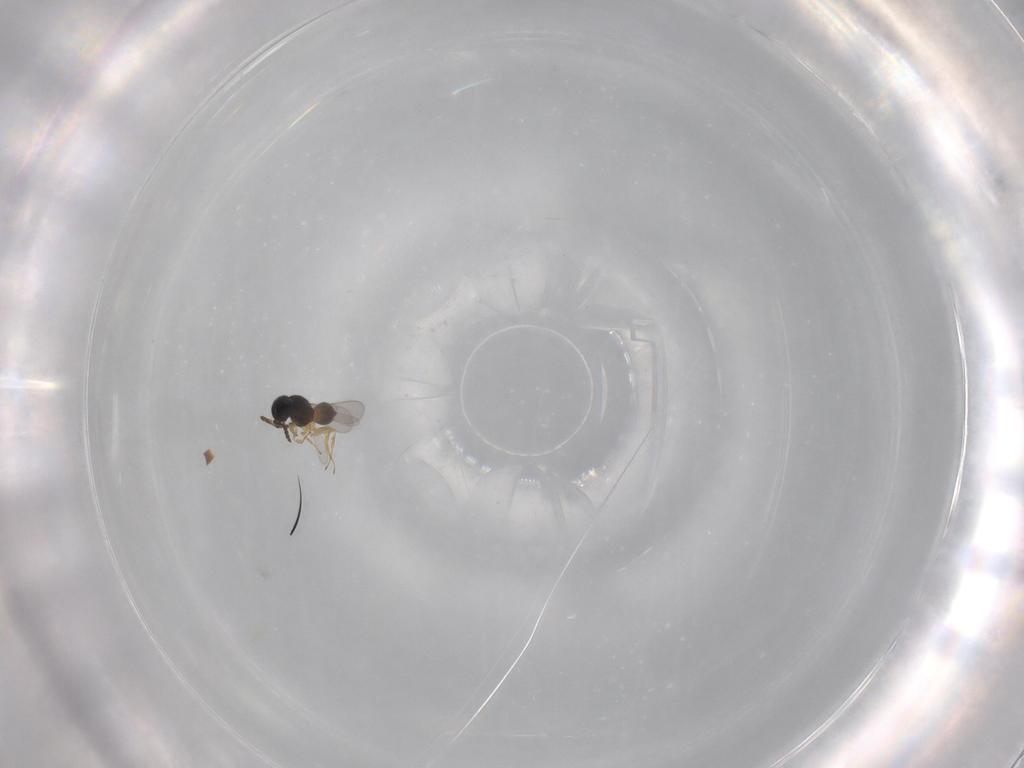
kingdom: Animalia
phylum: Arthropoda
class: Insecta
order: Hymenoptera
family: Scelionidae
